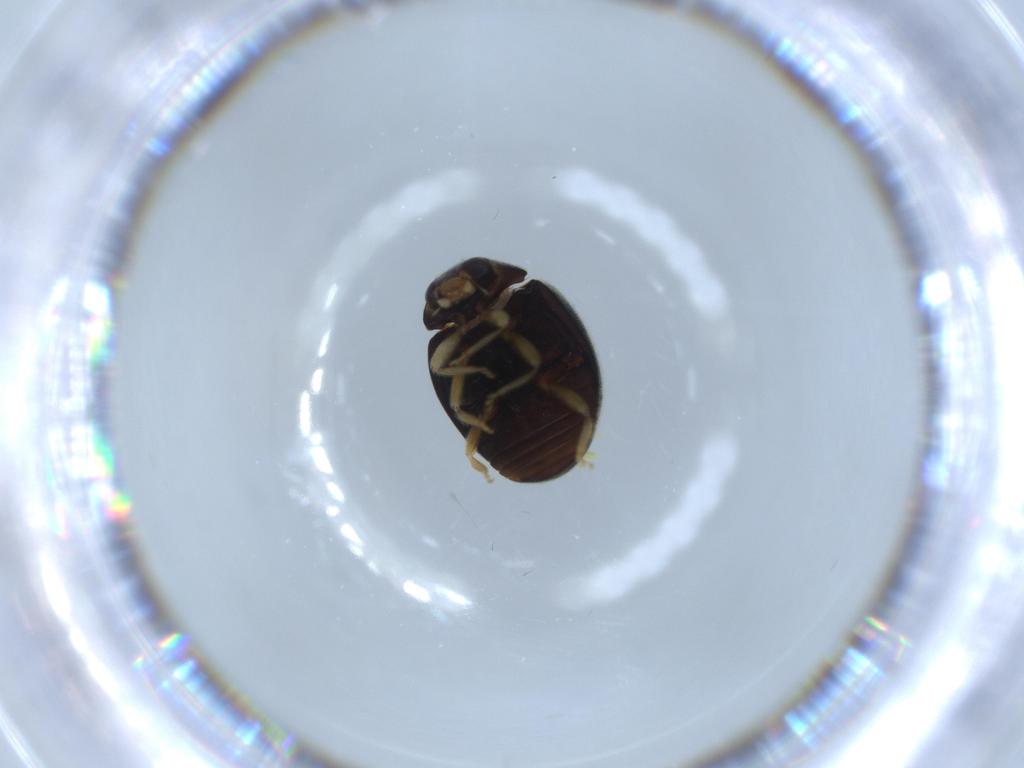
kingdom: Animalia
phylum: Arthropoda
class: Insecta
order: Coleoptera
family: Coccinellidae
